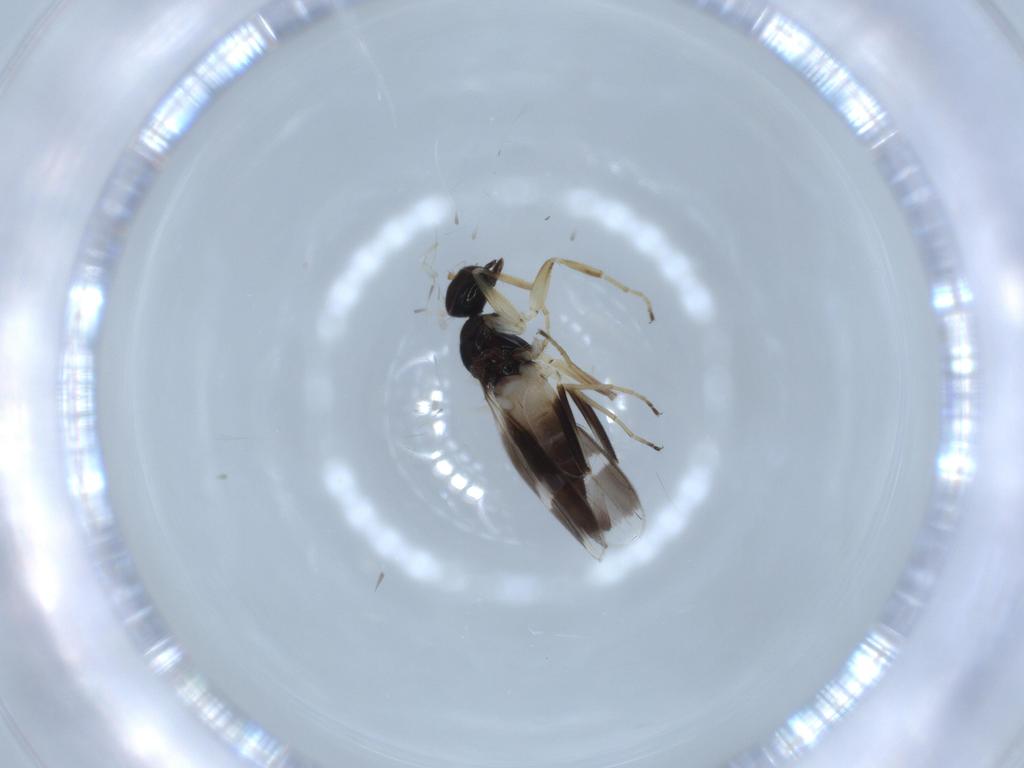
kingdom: Animalia
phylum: Arthropoda
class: Insecta
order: Diptera
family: Hybotidae
